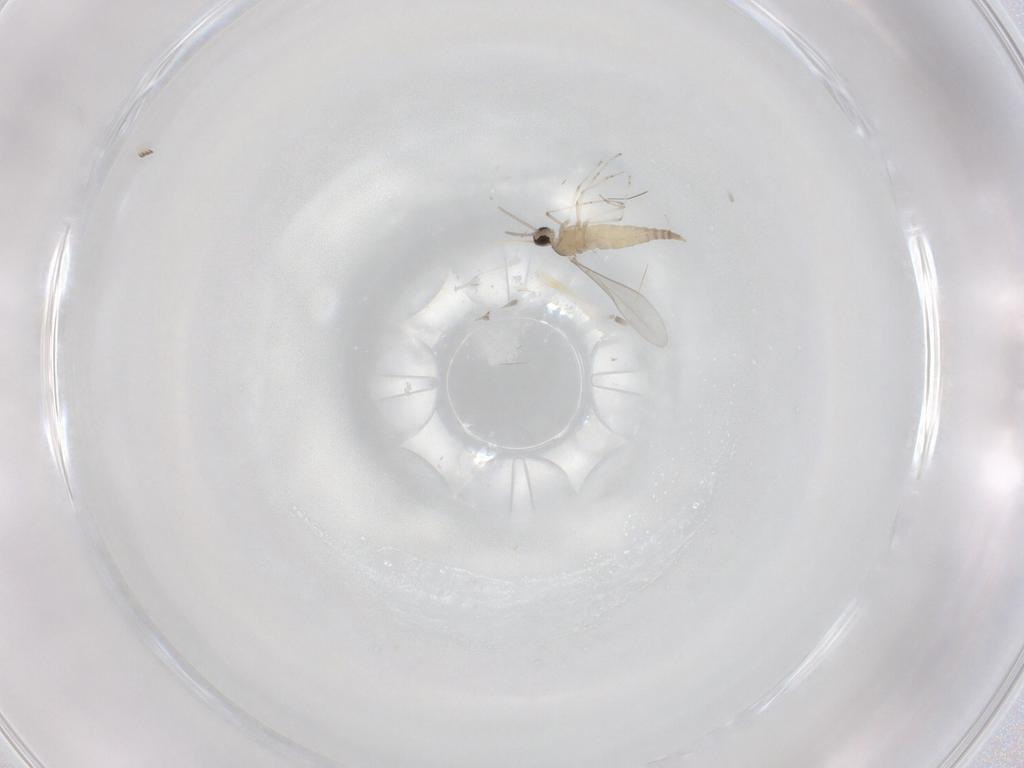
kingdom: Animalia
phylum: Arthropoda
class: Insecta
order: Diptera
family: Cecidomyiidae
